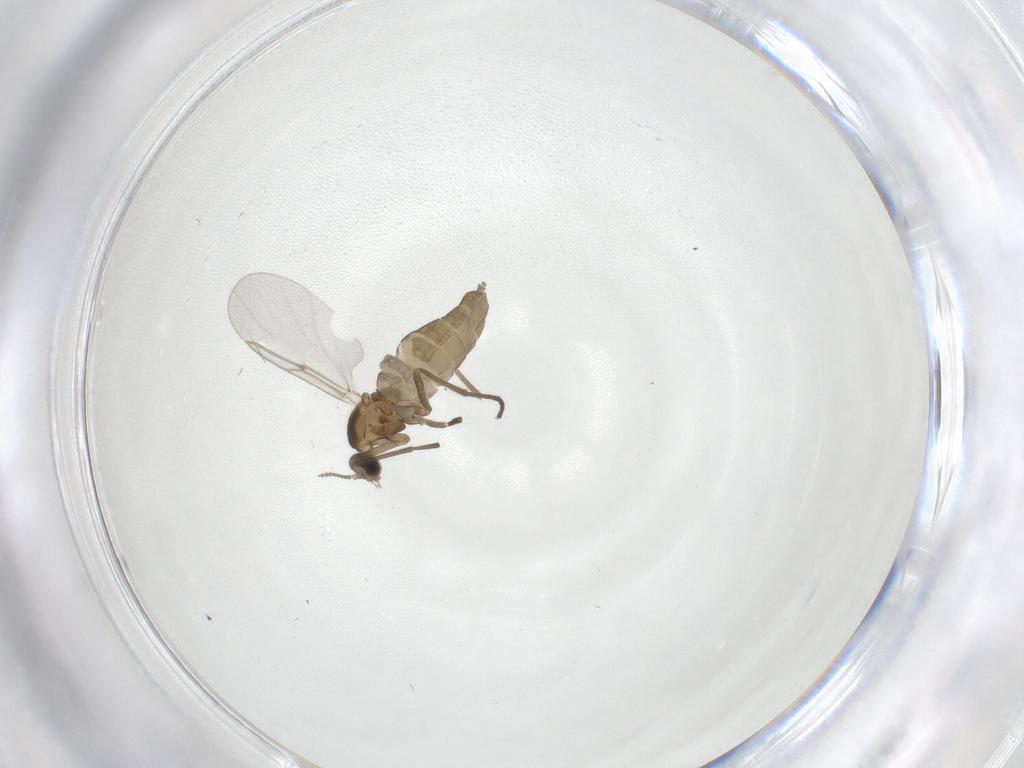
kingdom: Animalia
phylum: Arthropoda
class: Insecta
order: Diptera
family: Cecidomyiidae
